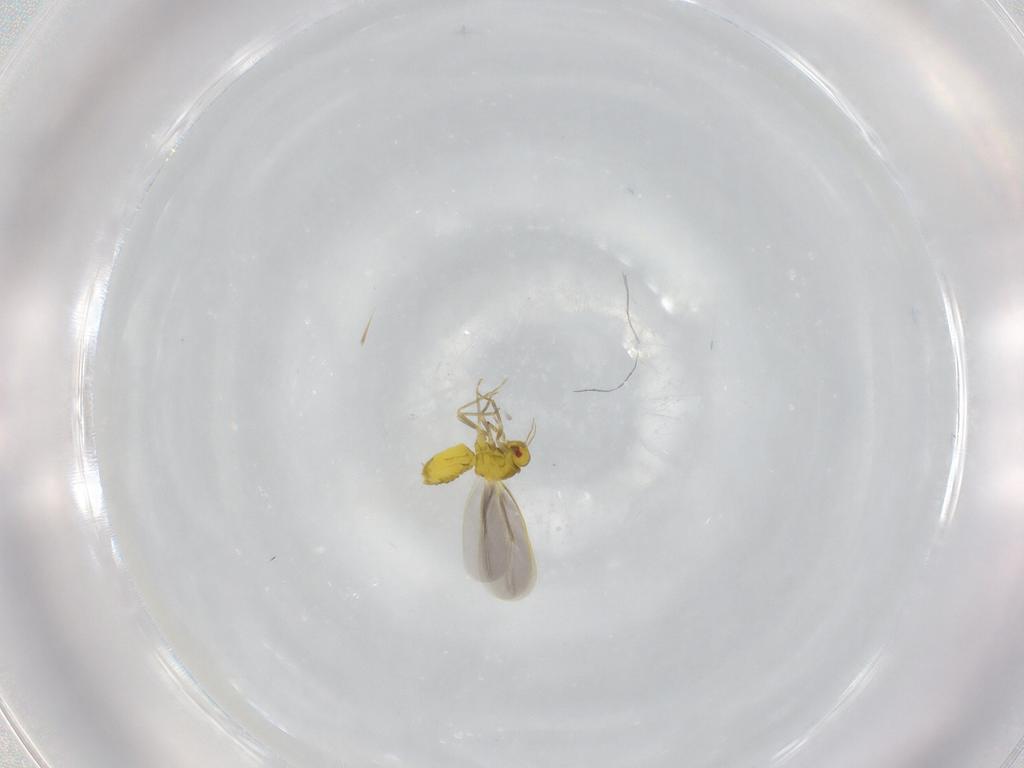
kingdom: Animalia
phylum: Arthropoda
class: Insecta
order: Hemiptera
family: Aleyrodidae
